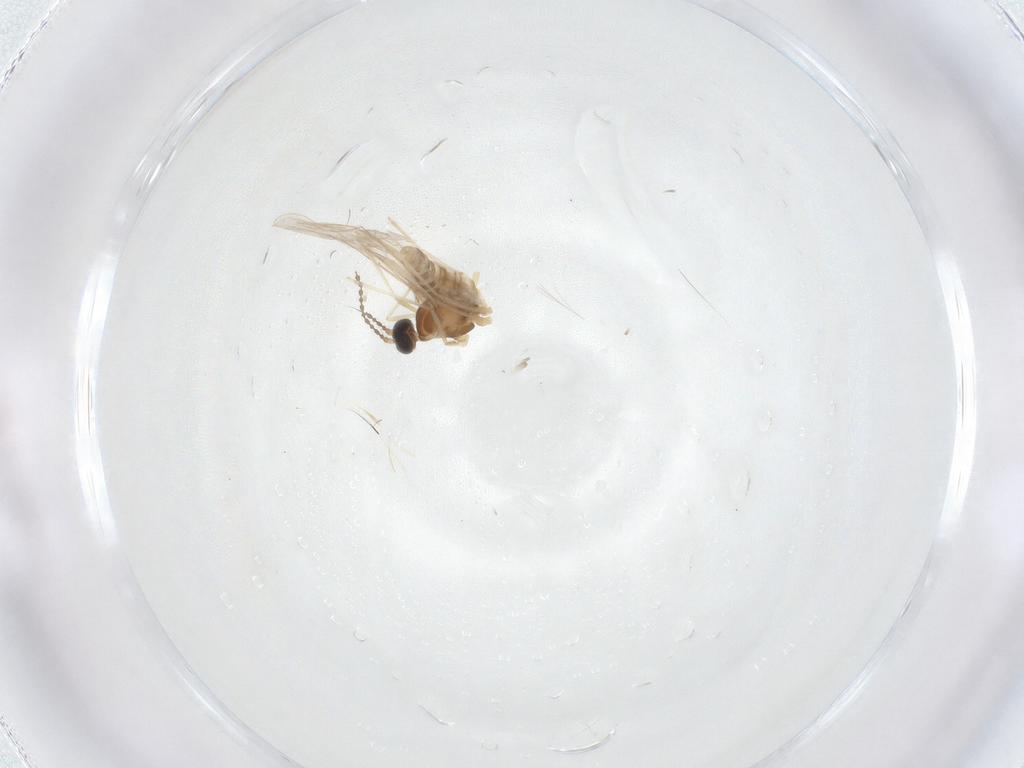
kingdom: Animalia
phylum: Arthropoda
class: Insecta
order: Diptera
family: Cecidomyiidae
